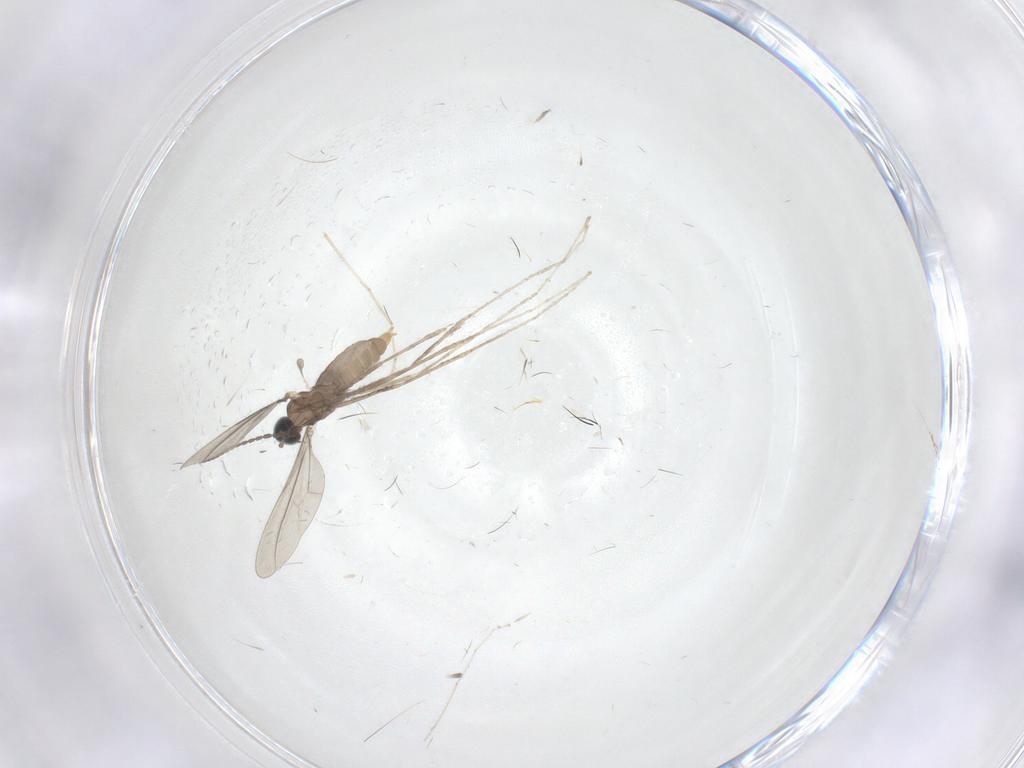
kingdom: Animalia
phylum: Arthropoda
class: Insecta
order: Diptera
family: Cecidomyiidae
